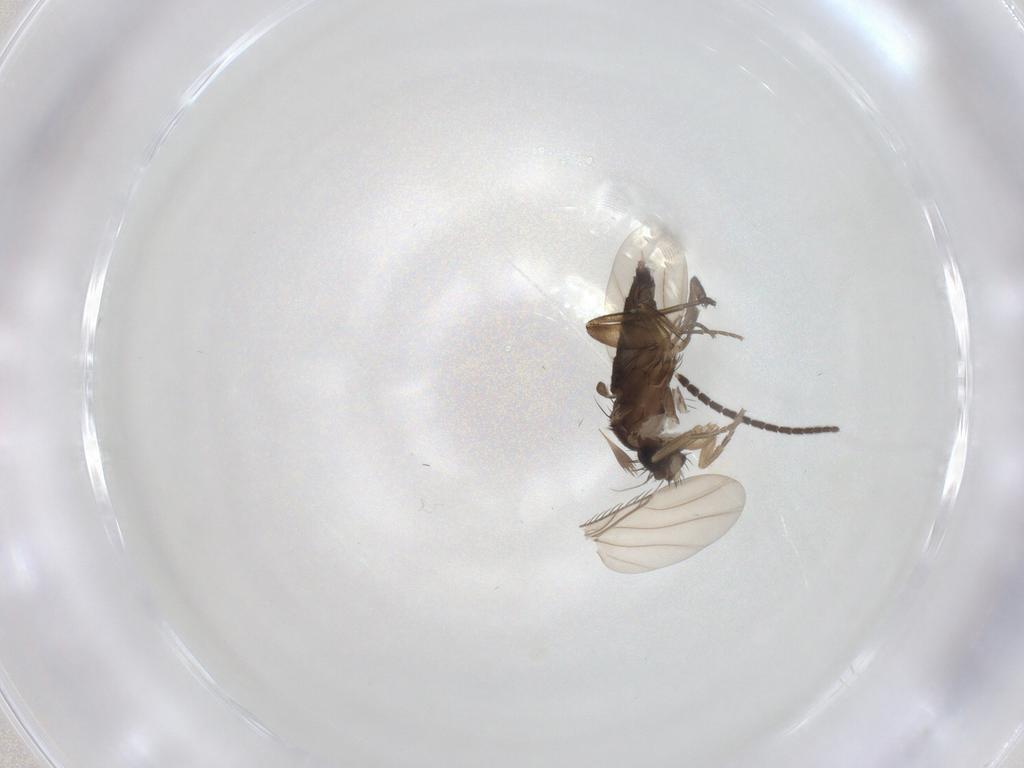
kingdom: Animalia
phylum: Arthropoda
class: Insecta
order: Diptera
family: Phoridae
